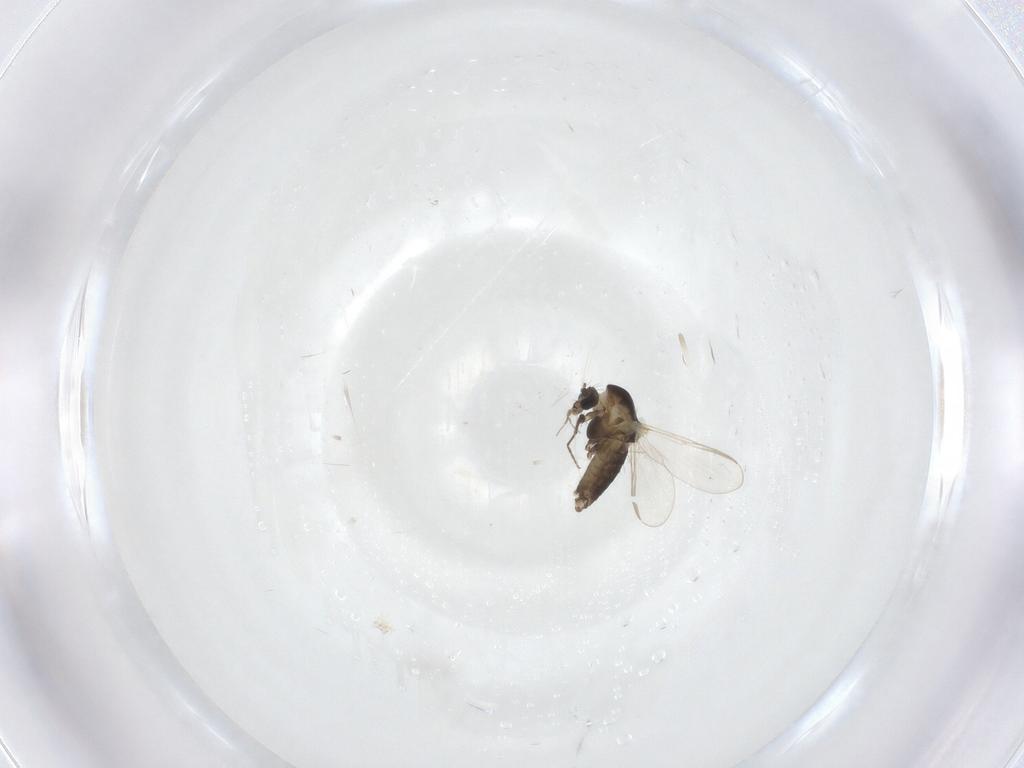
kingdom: Animalia
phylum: Arthropoda
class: Insecta
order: Diptera
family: Chironomidae
